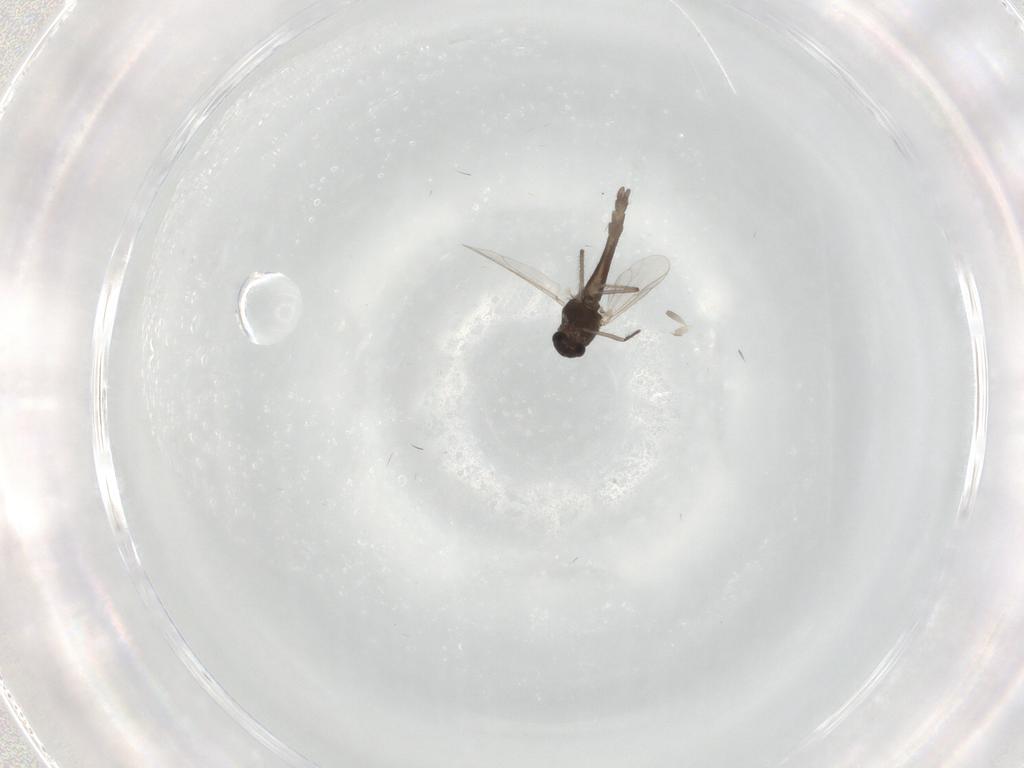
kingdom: Animalia
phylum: Arthropoda
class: Insecta
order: Diptera
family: Chironomidae
